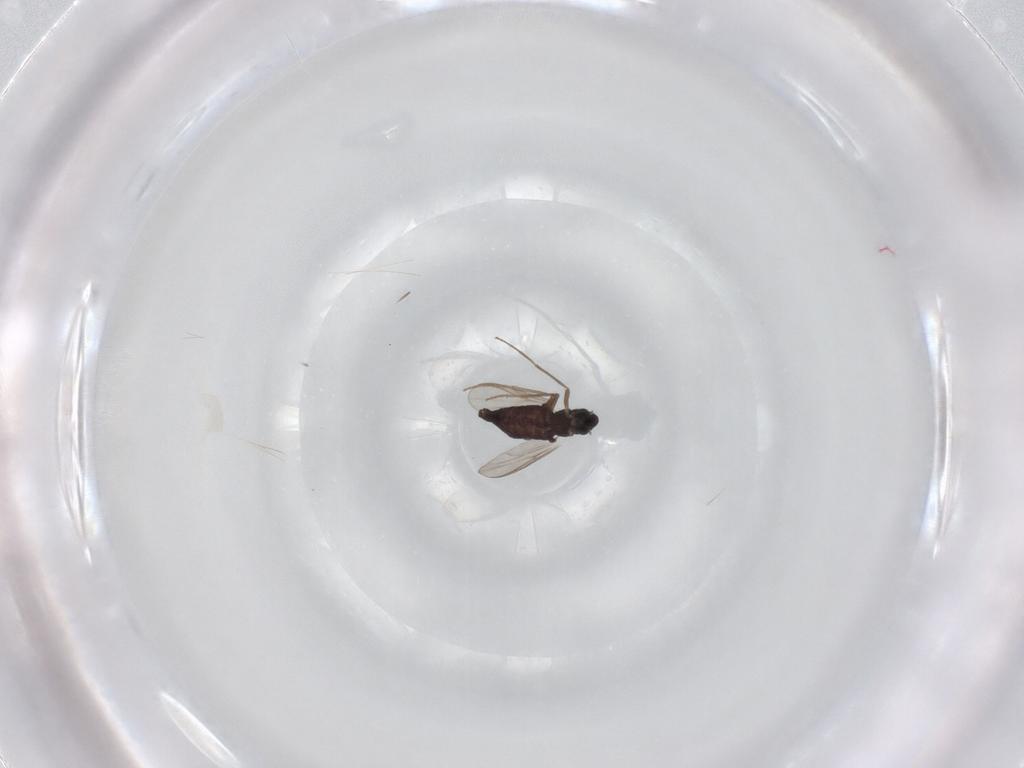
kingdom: Animalia
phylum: Arthropoda
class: Insecta
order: Diptera
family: Chironomidae
